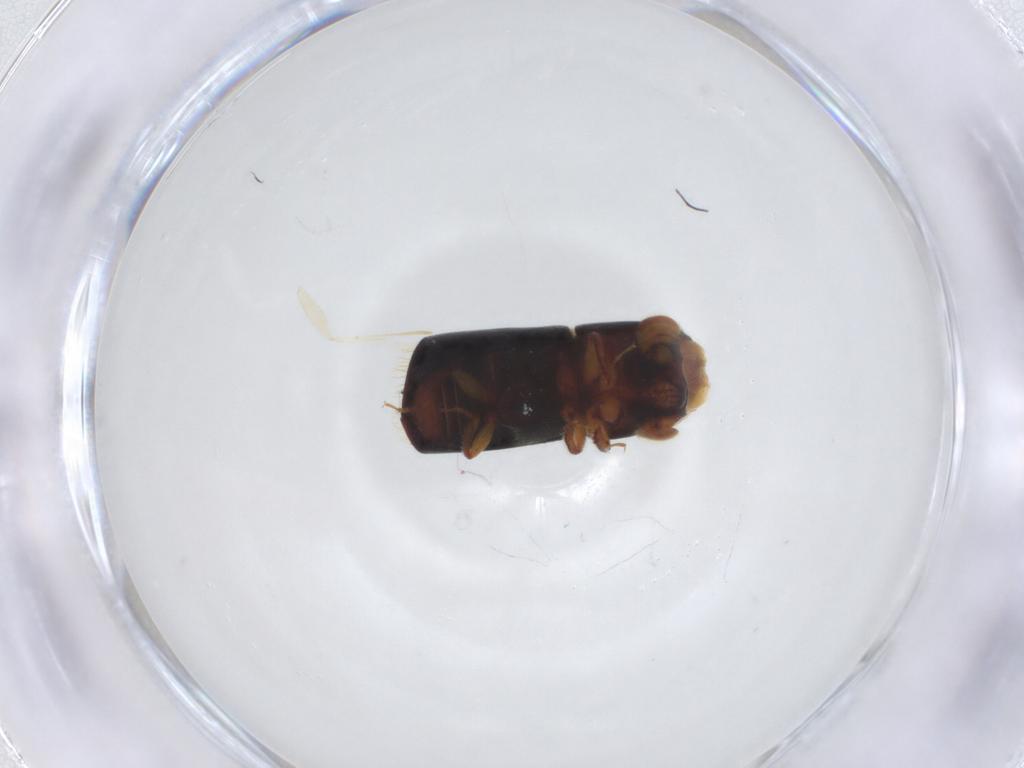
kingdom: Animalia
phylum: Arthropoda
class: Insecta
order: Coleoptera
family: Curculionidae
